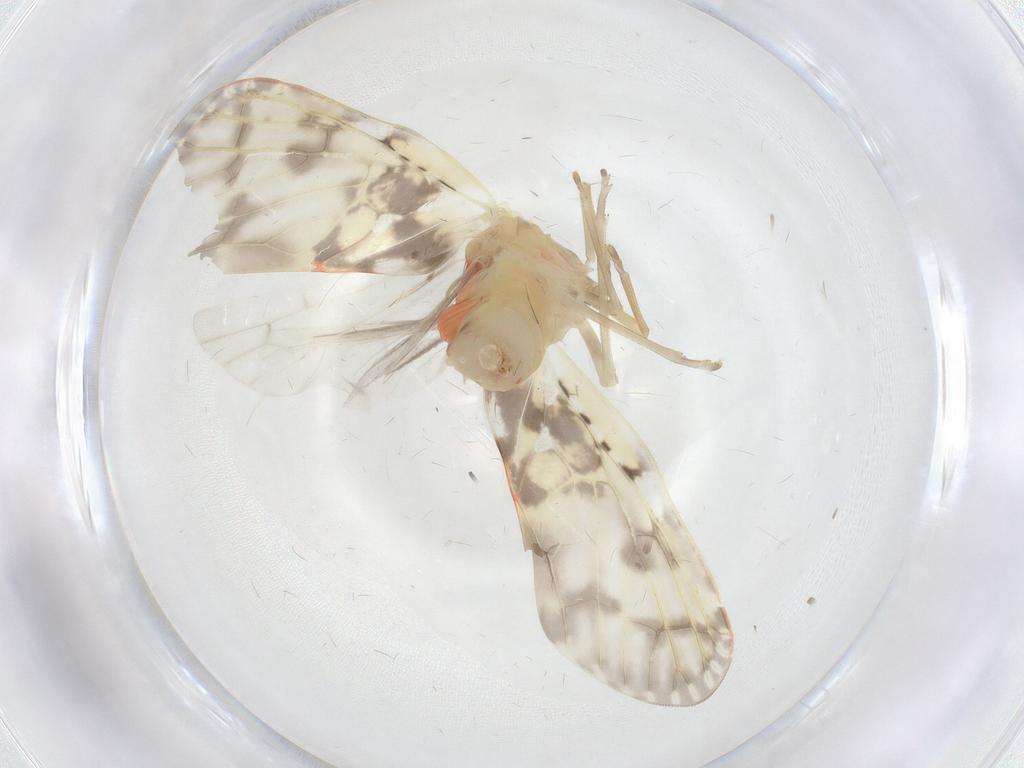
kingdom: Animalia
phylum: Arthropoda
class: Insecta
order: Hemiptera
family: Derbidae
